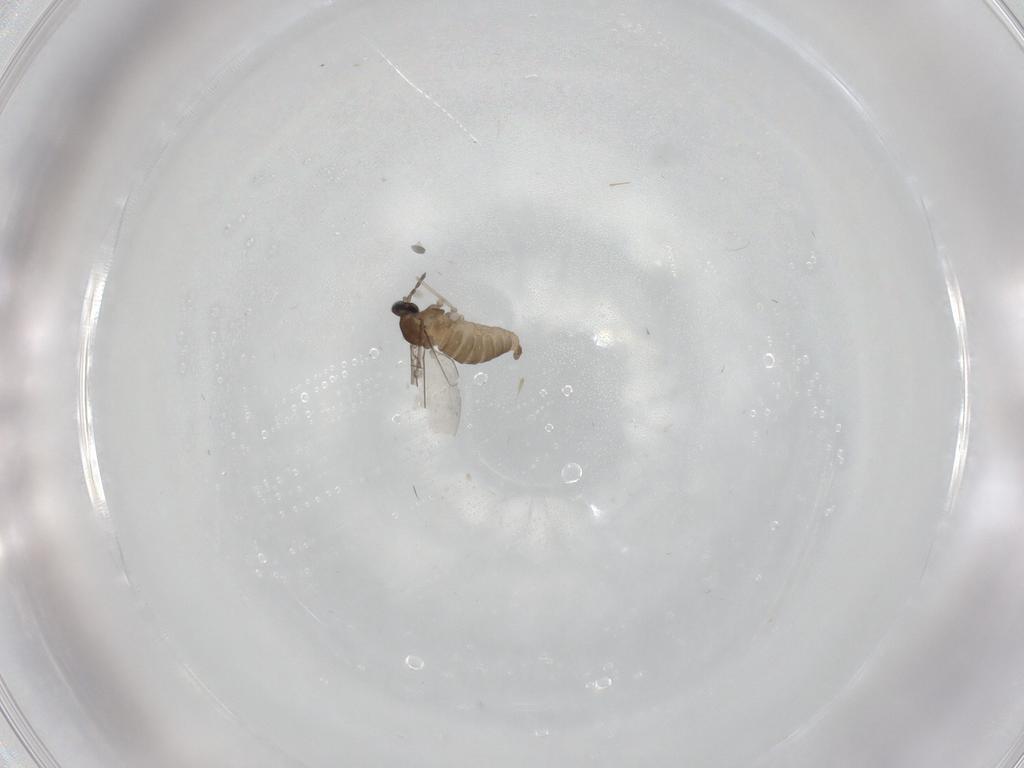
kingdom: Animalia
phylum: Arthropoda
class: Insecta
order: Diptera
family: Cecidomyiidae
